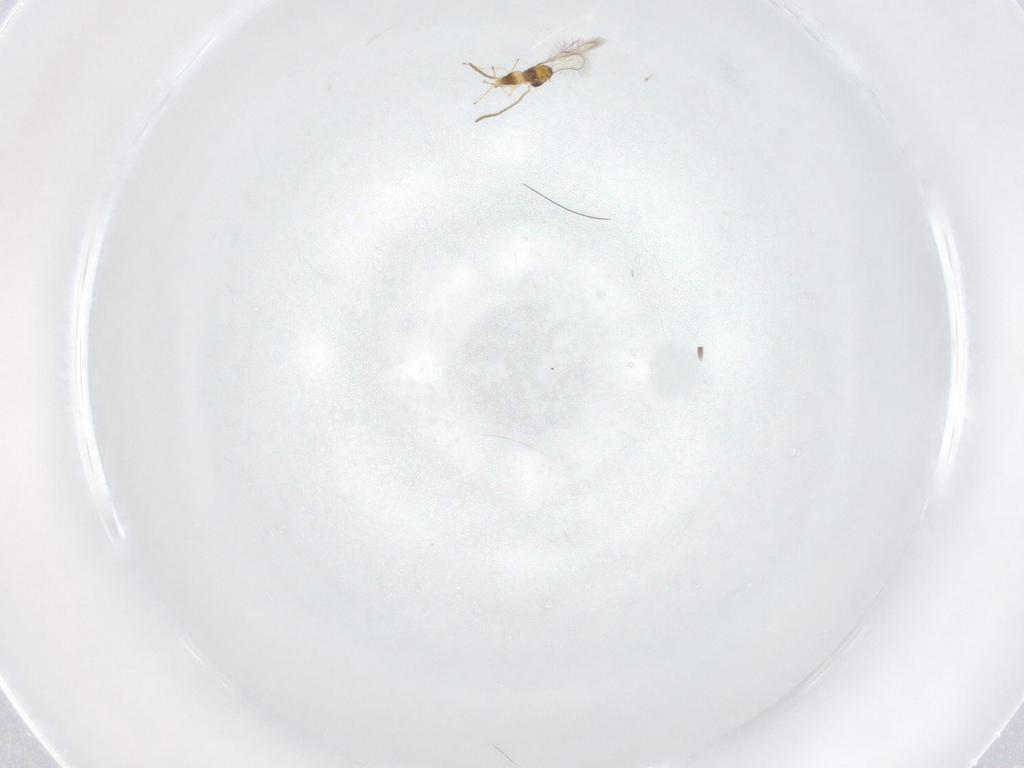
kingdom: Animalia
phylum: Arthropoda
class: Insecta
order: Hymenoptera
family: Mymaridae
